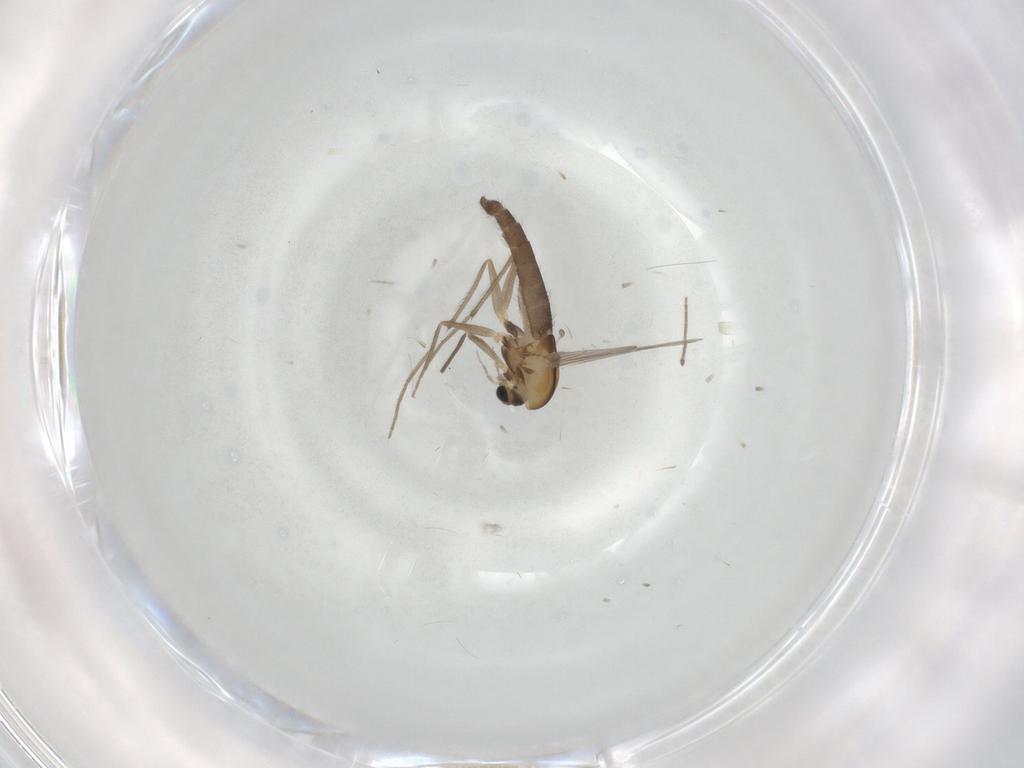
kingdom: Animalia
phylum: Arthropoda
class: Insecta
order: Diptera
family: Chironomidae
